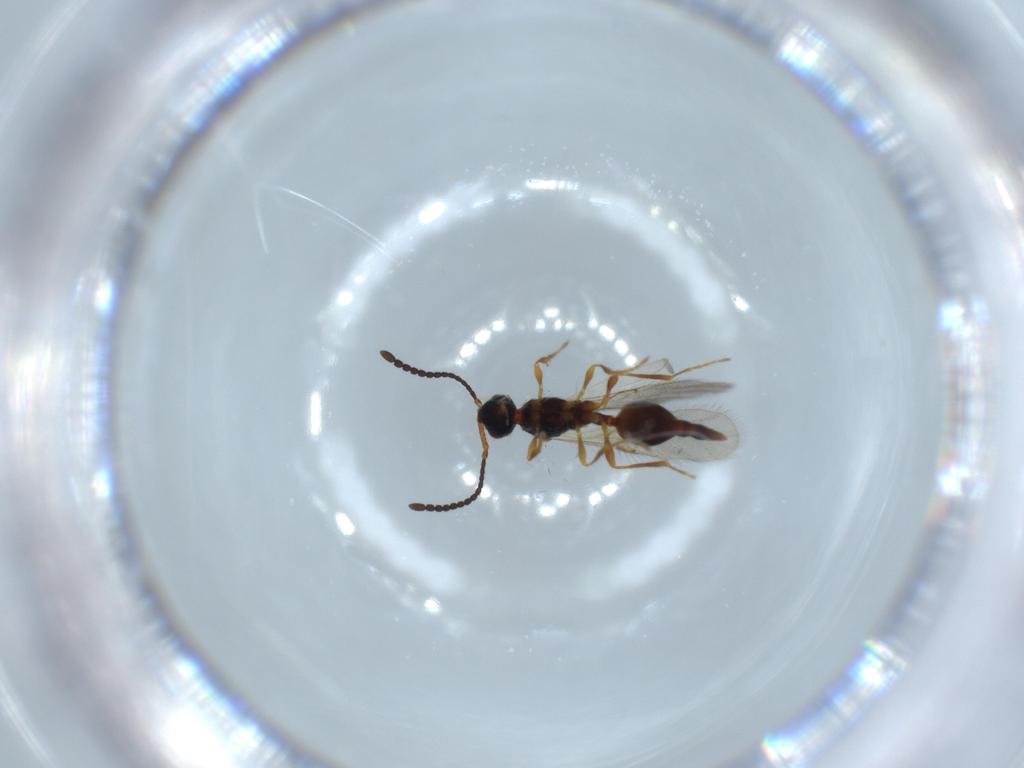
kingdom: Animalia
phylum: Arthropoda
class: Insecta
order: Hymenoptera
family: Diapriidae
